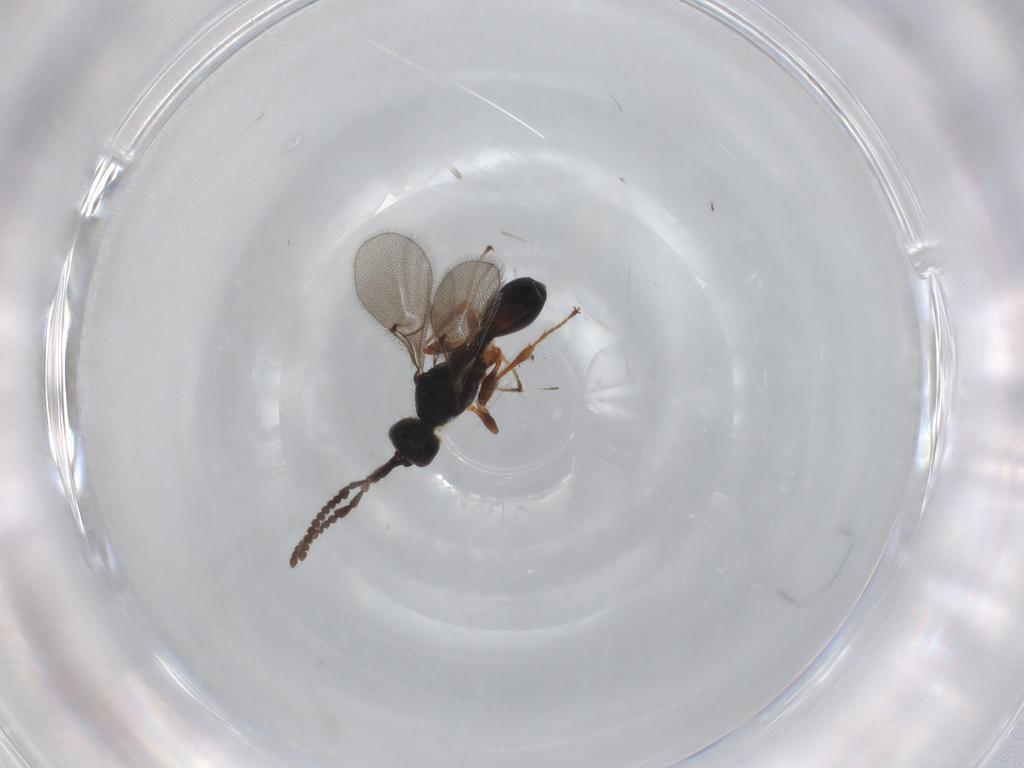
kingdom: Animalia
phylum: Arthropoda
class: Insecta
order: Hymenoptera
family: Diapriidae
